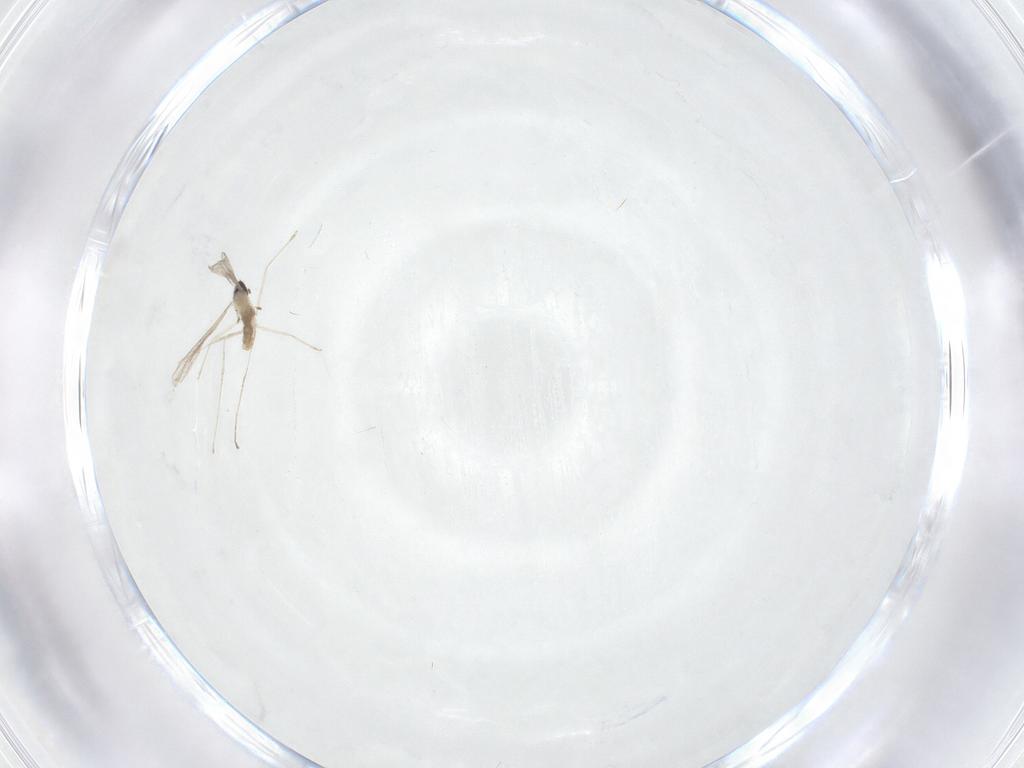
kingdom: Animalia
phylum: Arthropoda
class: Insecta
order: Diptera
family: Cecidomyiidae
